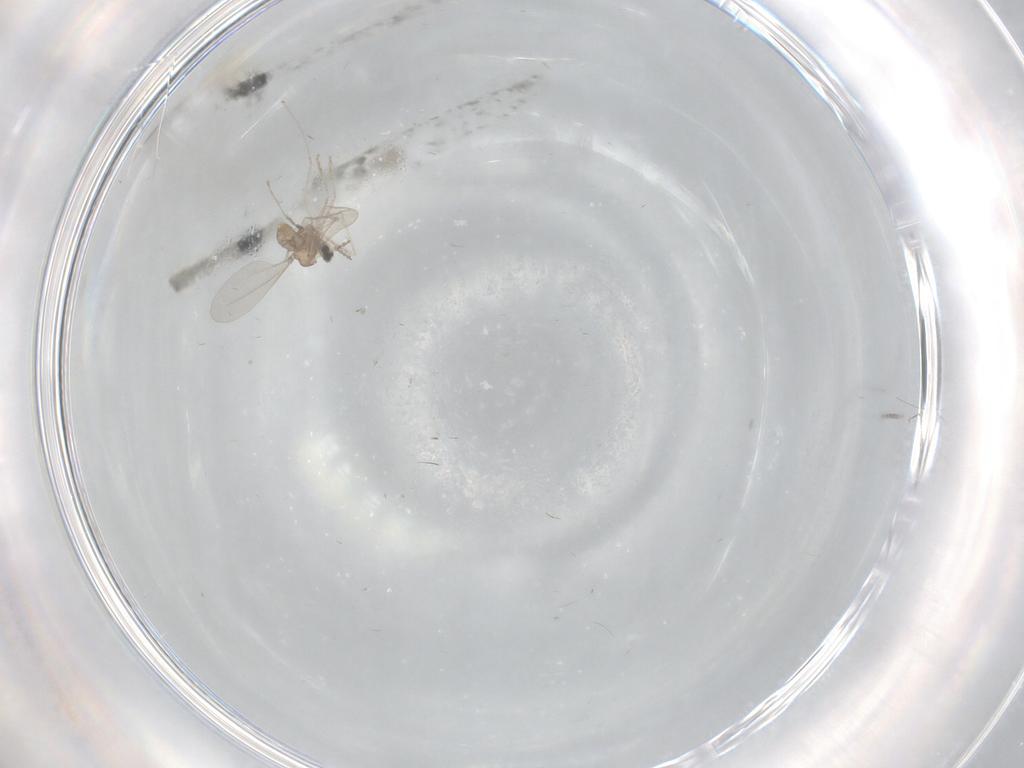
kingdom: Animalia
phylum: Arthropoda
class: Insecta
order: Diptera
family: Cecidomyiidae
